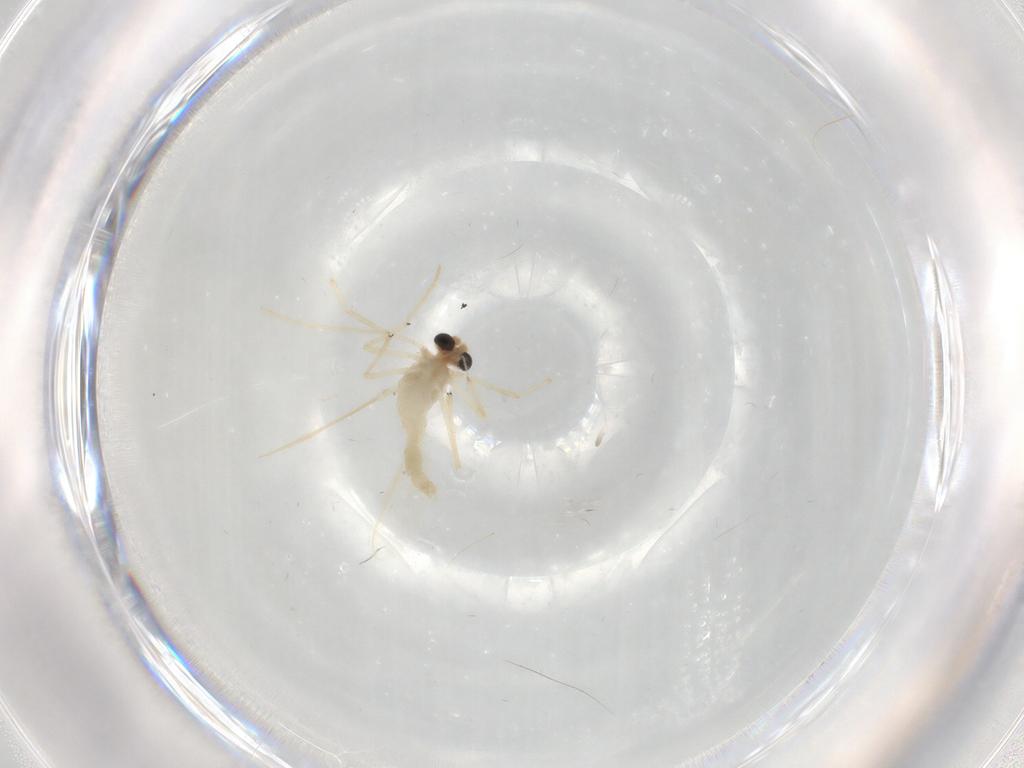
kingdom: Animalia
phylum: Arthropoda
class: Insecta
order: Diptera
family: Chironomidae
